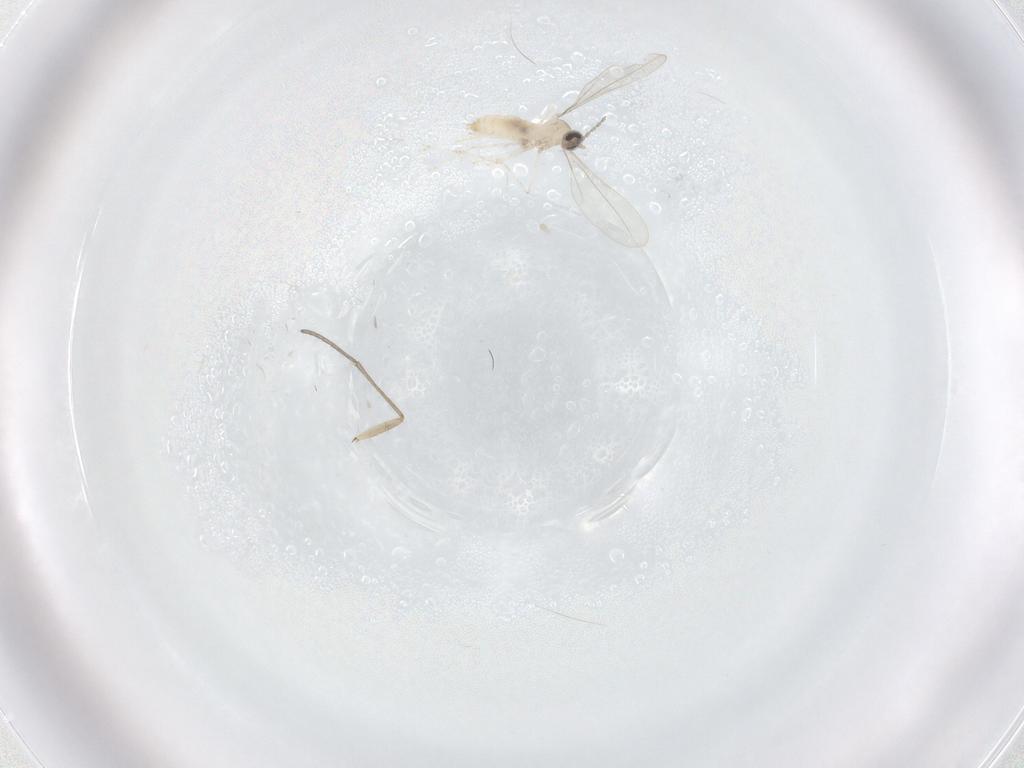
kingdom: Animalia
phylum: Arthropoda
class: Insecta
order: Diptera
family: Cecidomyiidae
